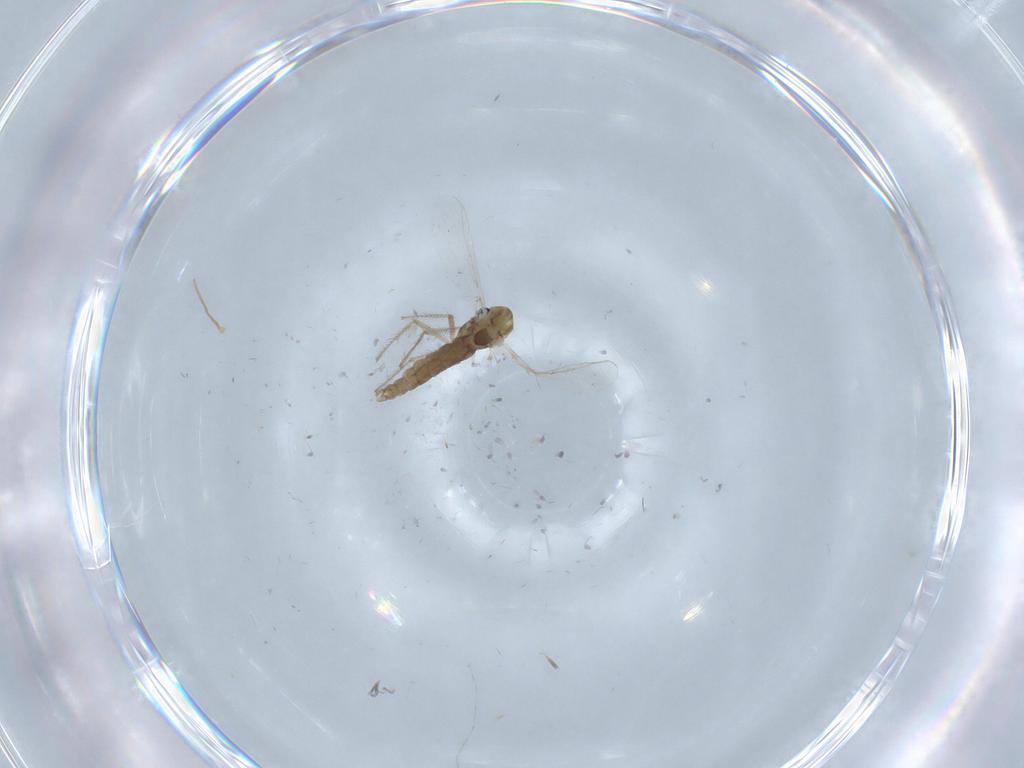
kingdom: Animalia
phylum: Arthropoda
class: Insecta
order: Diptera
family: Chironomidae
